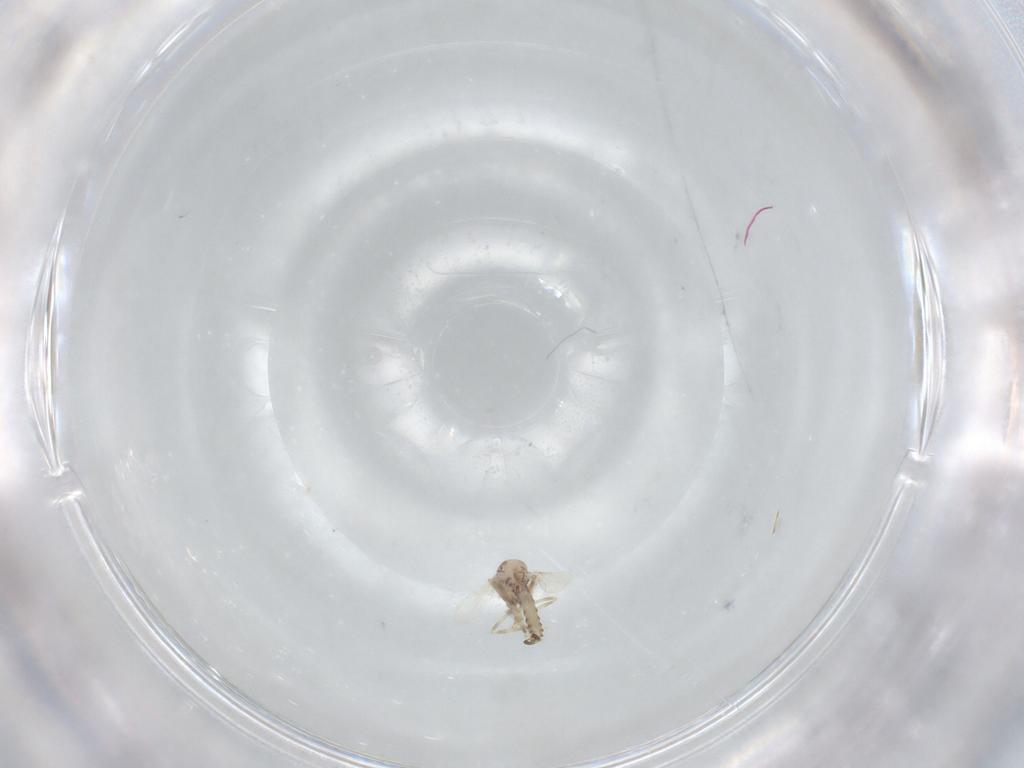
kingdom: Animalia
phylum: Arthropoda
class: Insecta
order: Diptera
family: Ceratopogonidae
